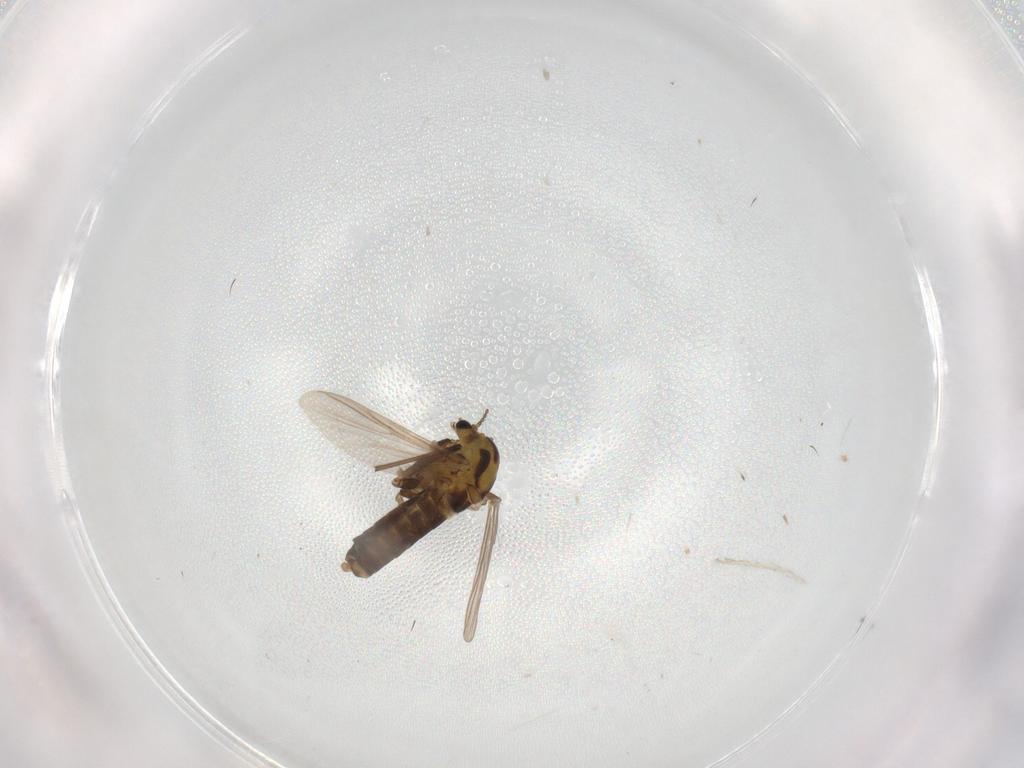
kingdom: Animalia
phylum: Arthropoda
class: Insecta
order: Diptera
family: Chironomidae
